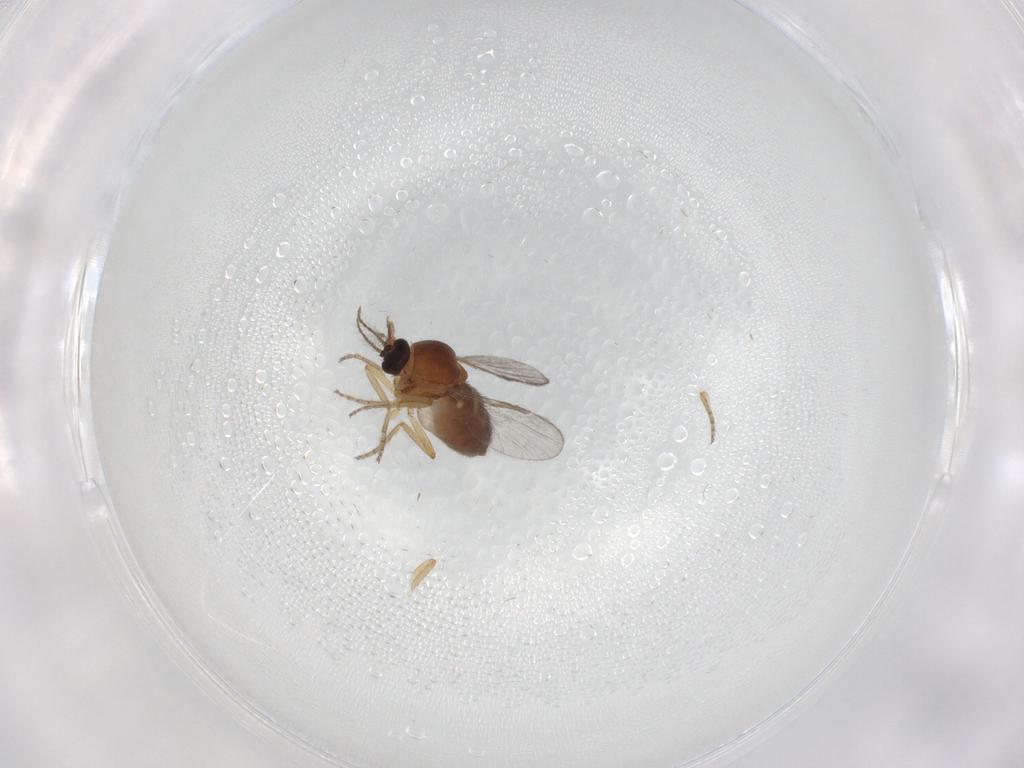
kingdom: Animalia
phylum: Arthropoda
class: Insecta
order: Diptera
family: Ceratopogonidae
